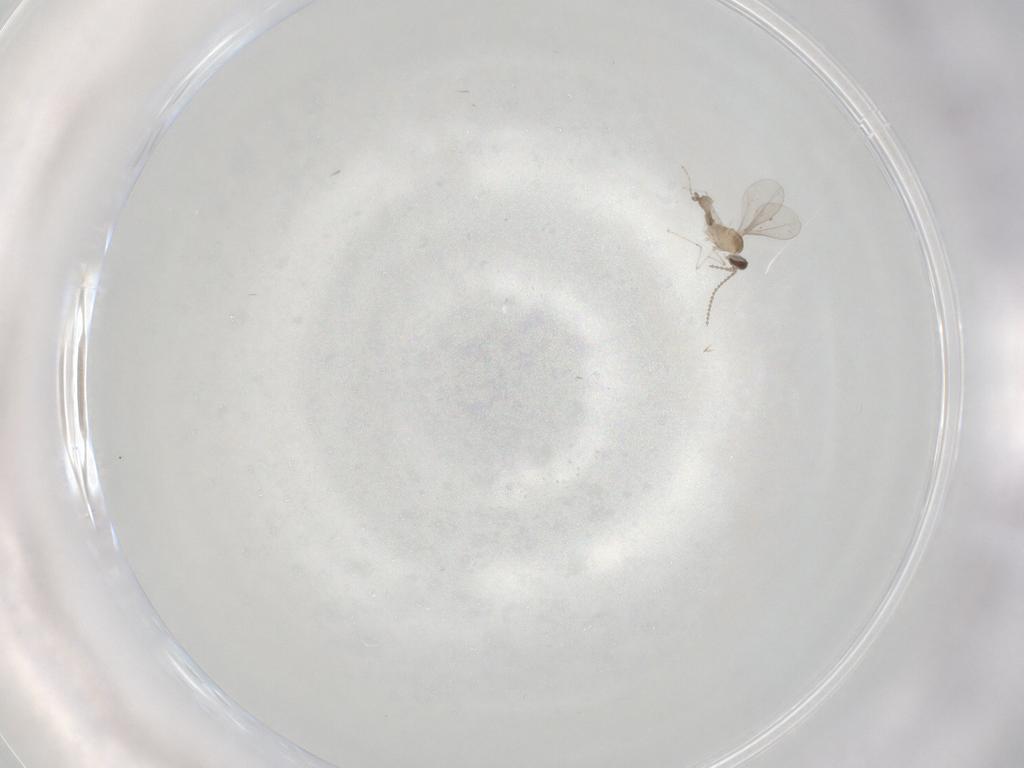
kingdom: Animalia
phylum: Arthropoda
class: Insecta
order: Diptera
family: Cecidomyiidae
